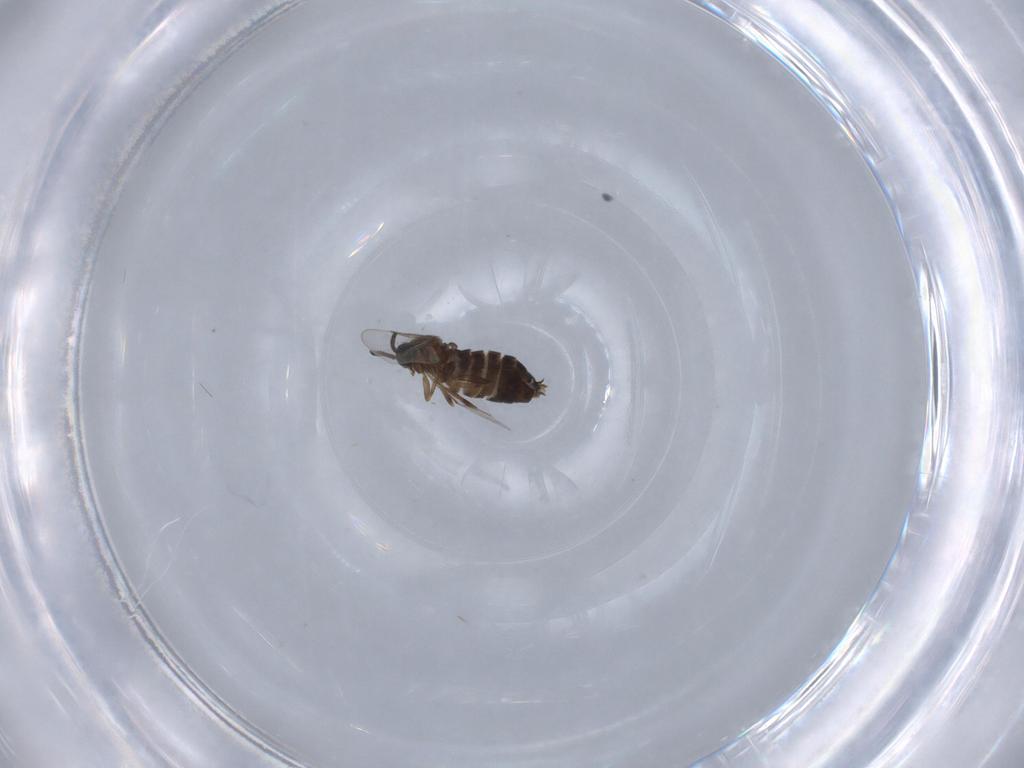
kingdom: Animalia
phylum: Arthropoda
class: Insecta
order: Diptera
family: Scatopsidae
